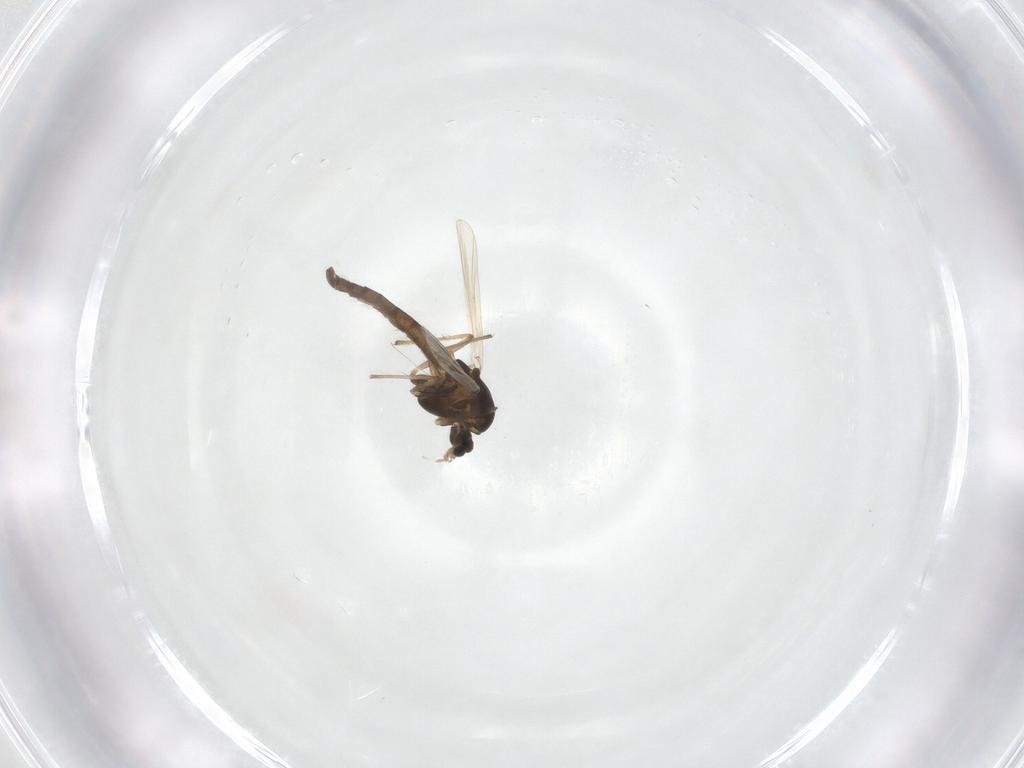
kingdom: Animalia
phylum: Arthropoda
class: Insecta
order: Diptera
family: Chironomidae
